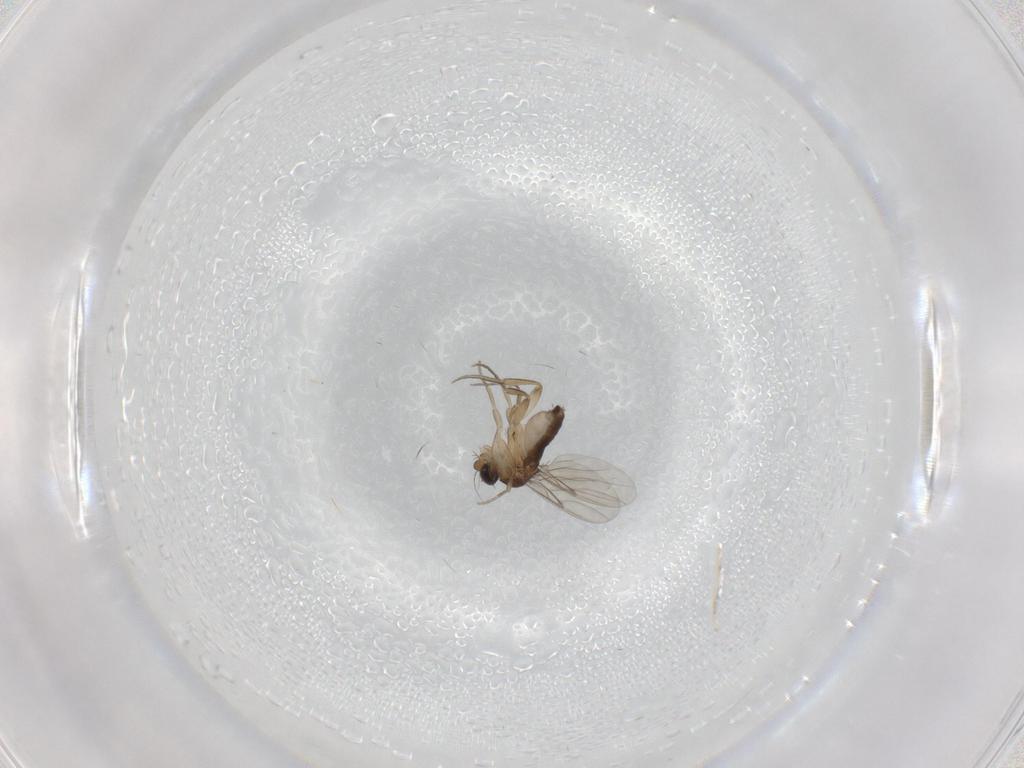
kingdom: Animalia
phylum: Arthropoda
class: Insecta
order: Diptera
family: Phoridae
